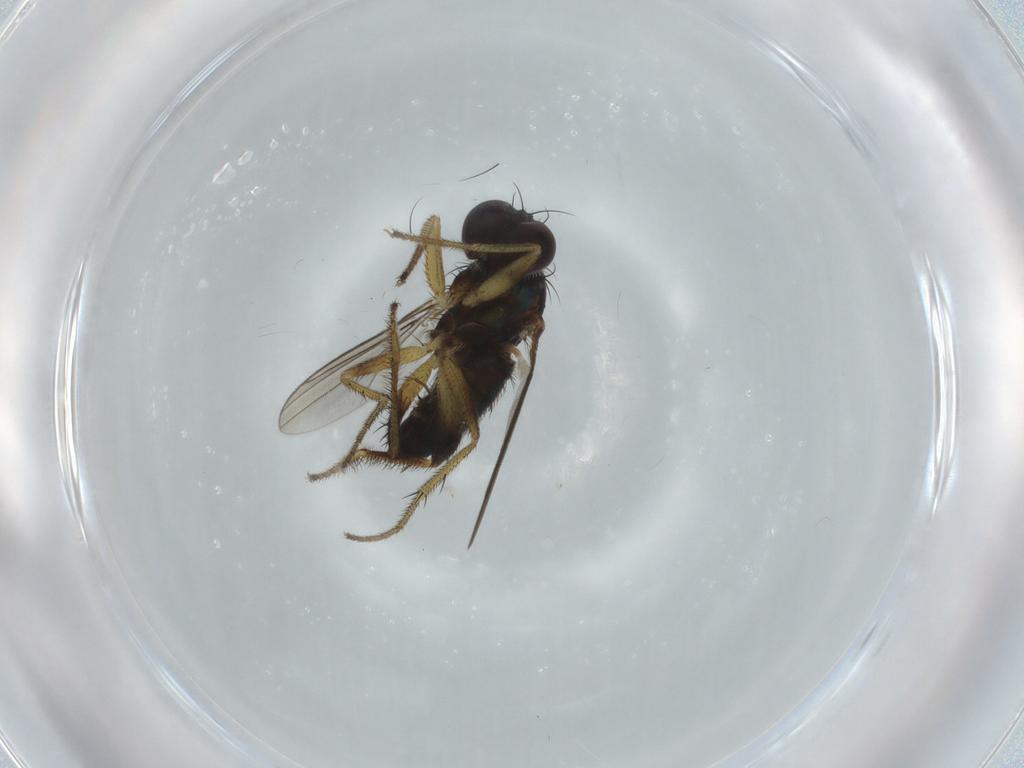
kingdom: Animalia
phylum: Arthropoda
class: Insecta
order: Diptera
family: Dolichopodidae
